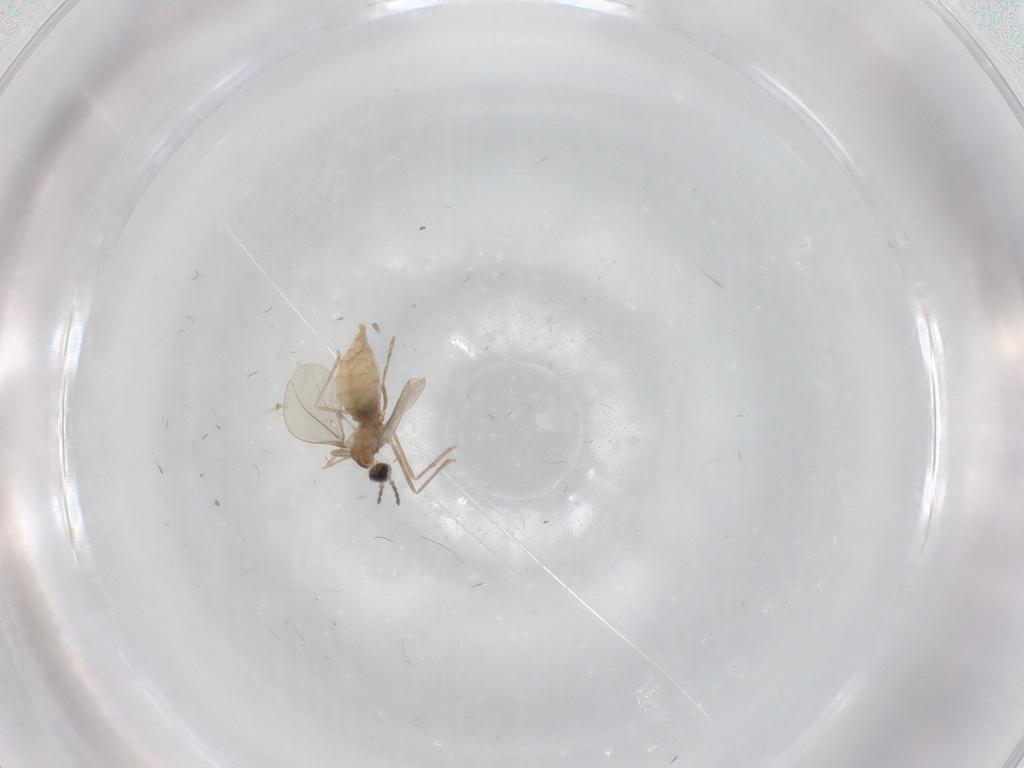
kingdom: Animalia
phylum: Arthropoda
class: Insecta
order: Diptera
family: Cecidomyiidae
